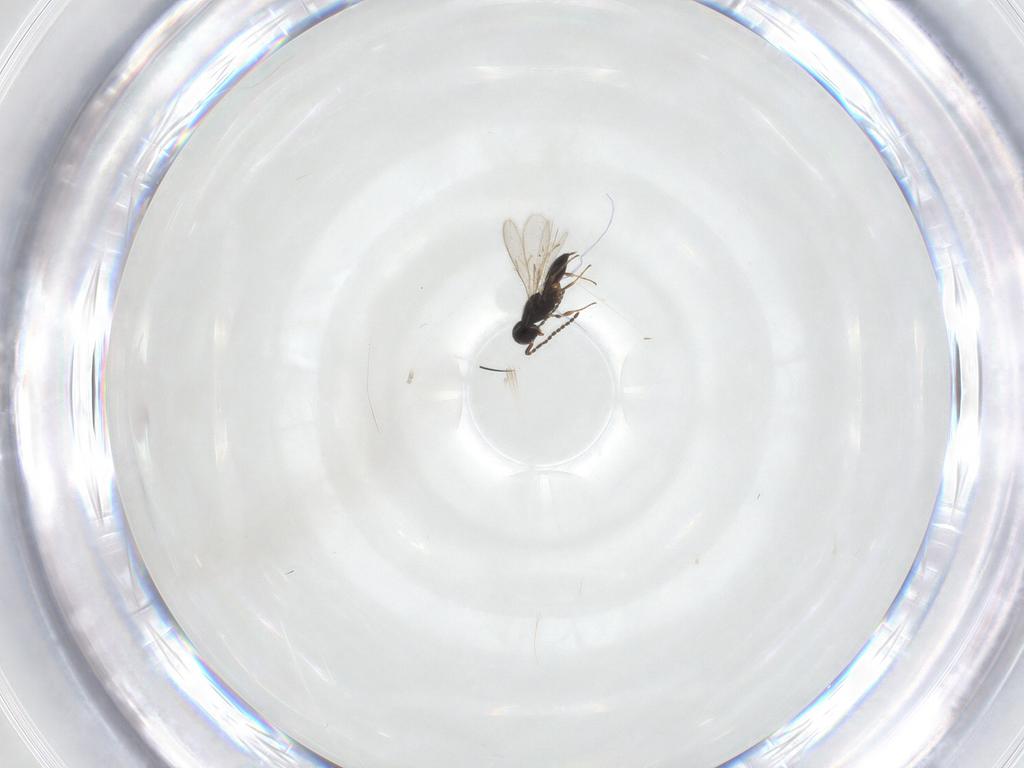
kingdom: Animalia
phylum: Arthropoda
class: Insecta
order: Hymenoptera
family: Scelionidae
